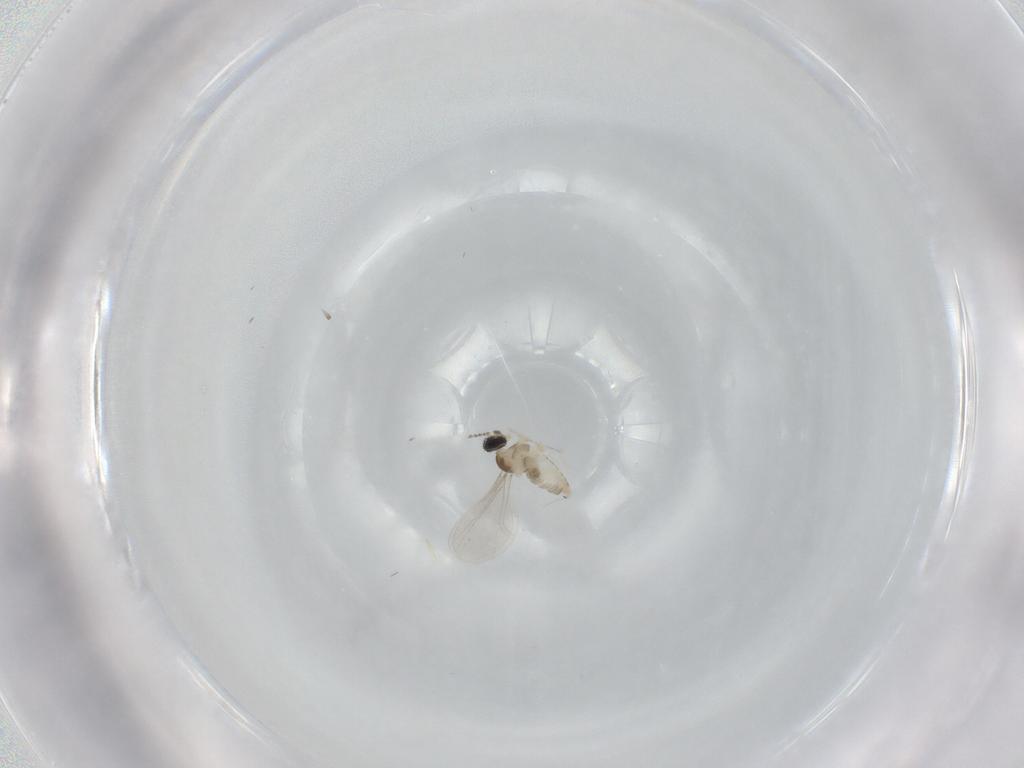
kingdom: Animalia
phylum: Arthropoda
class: Insecta
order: Diptera
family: Cecidomyiidae
